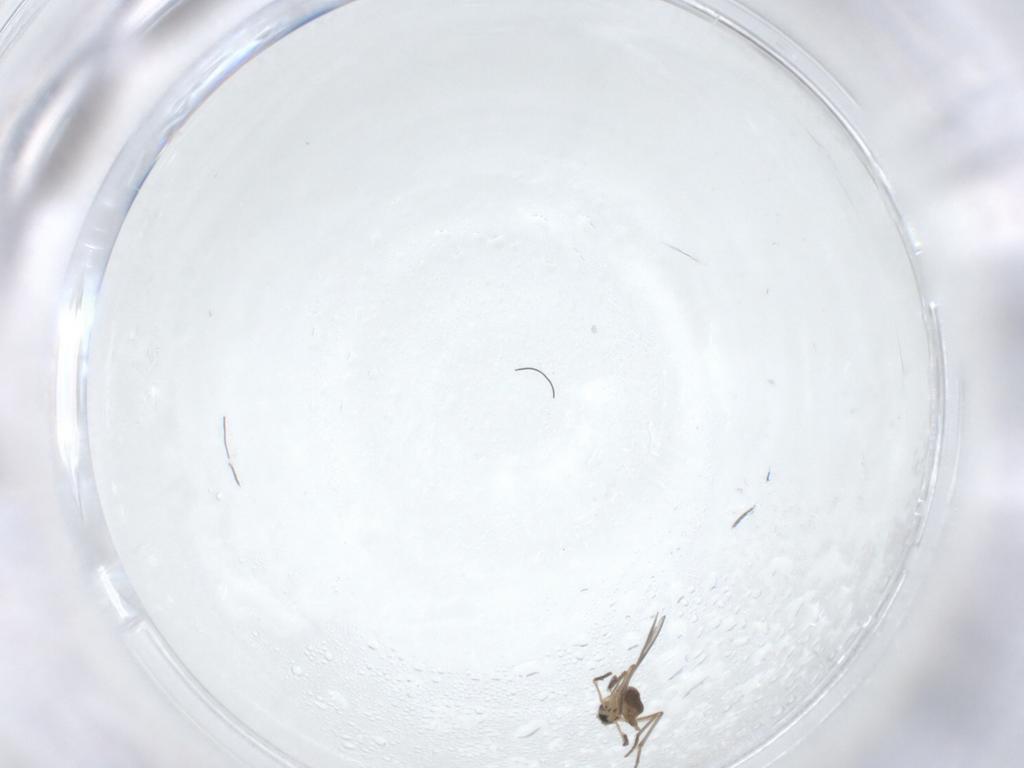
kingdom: Animalia
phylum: Arthropoda
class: Insecta
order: Diptera
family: Sciaridae
